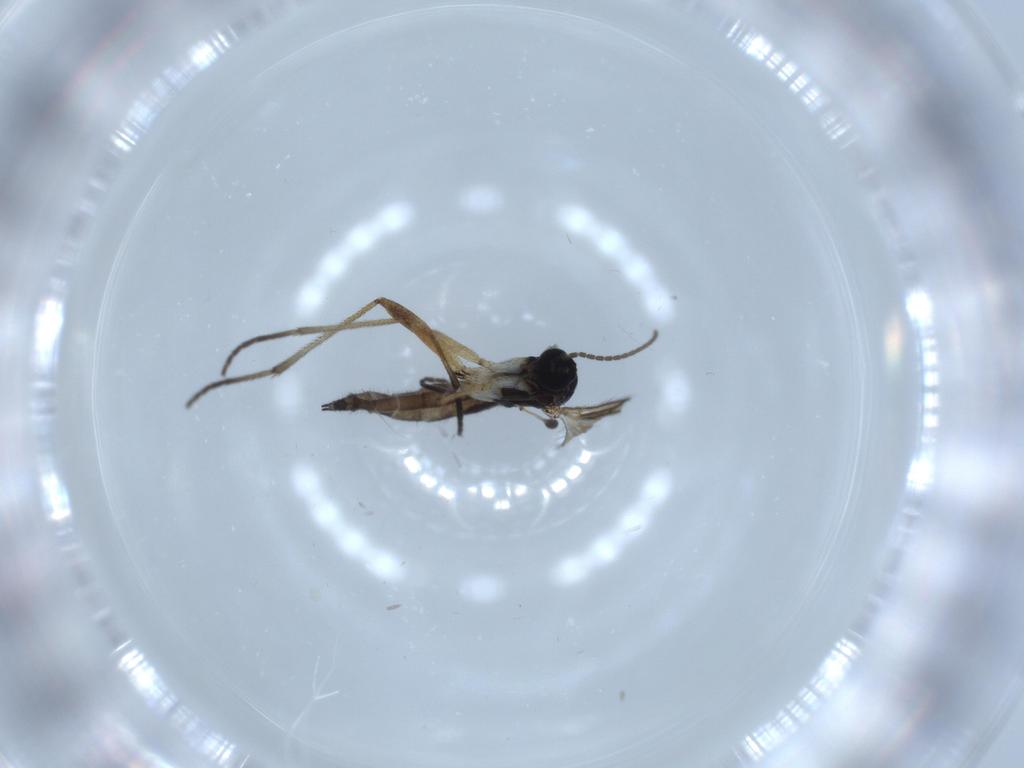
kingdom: Animalia
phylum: Arthropoda
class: Insecta
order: Diptera
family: Sciaridae
